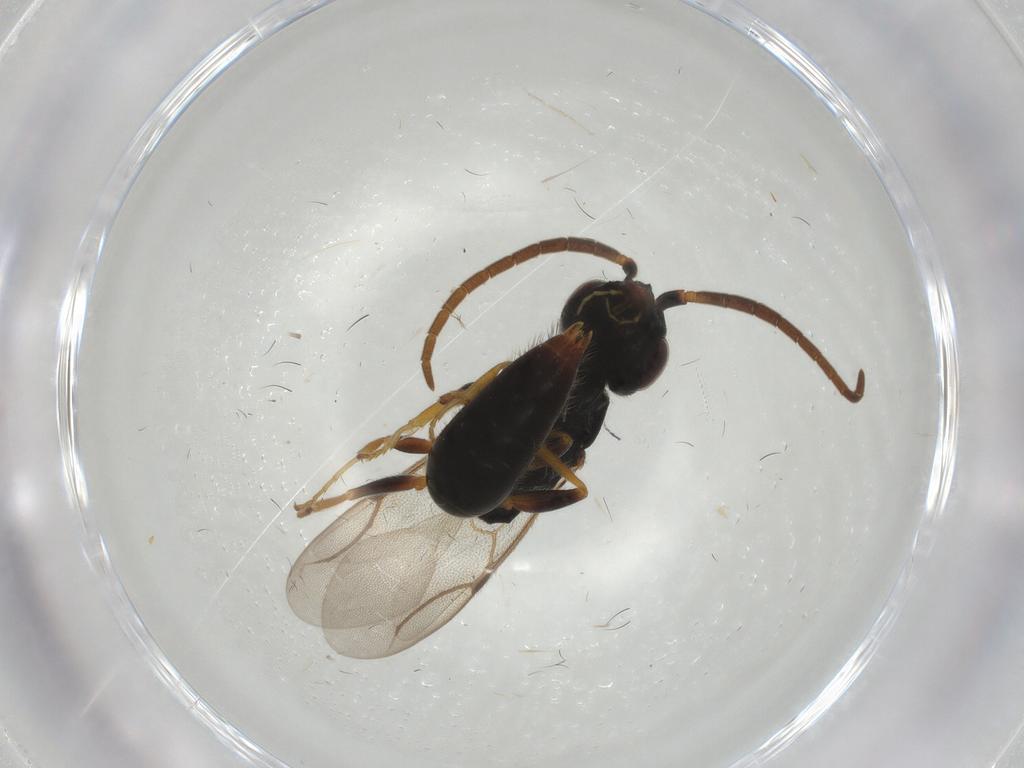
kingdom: Animalia
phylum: Arthropoda
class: Insecta
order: Hymenoptera
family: Bethylidae
